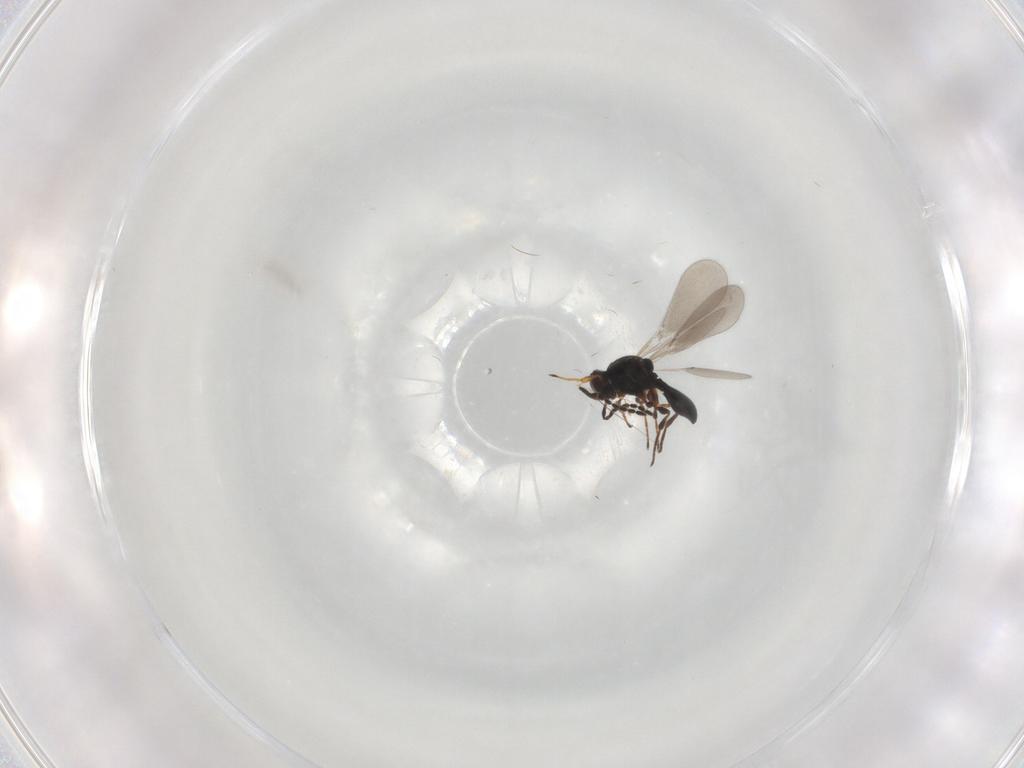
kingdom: Animalia
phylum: Arthropoda
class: Insecta
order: Hymenoptera
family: Platygastridae
